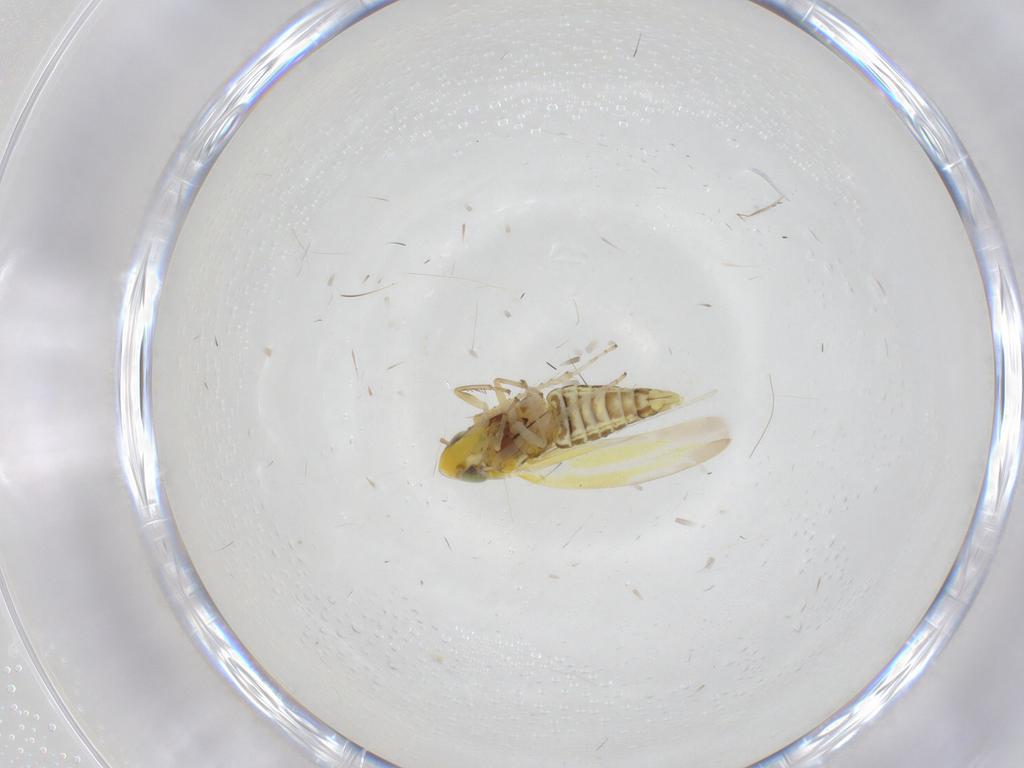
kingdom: Animalia
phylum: Arthropoda
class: Insecta
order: Hemiptera
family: Cicadellidae
